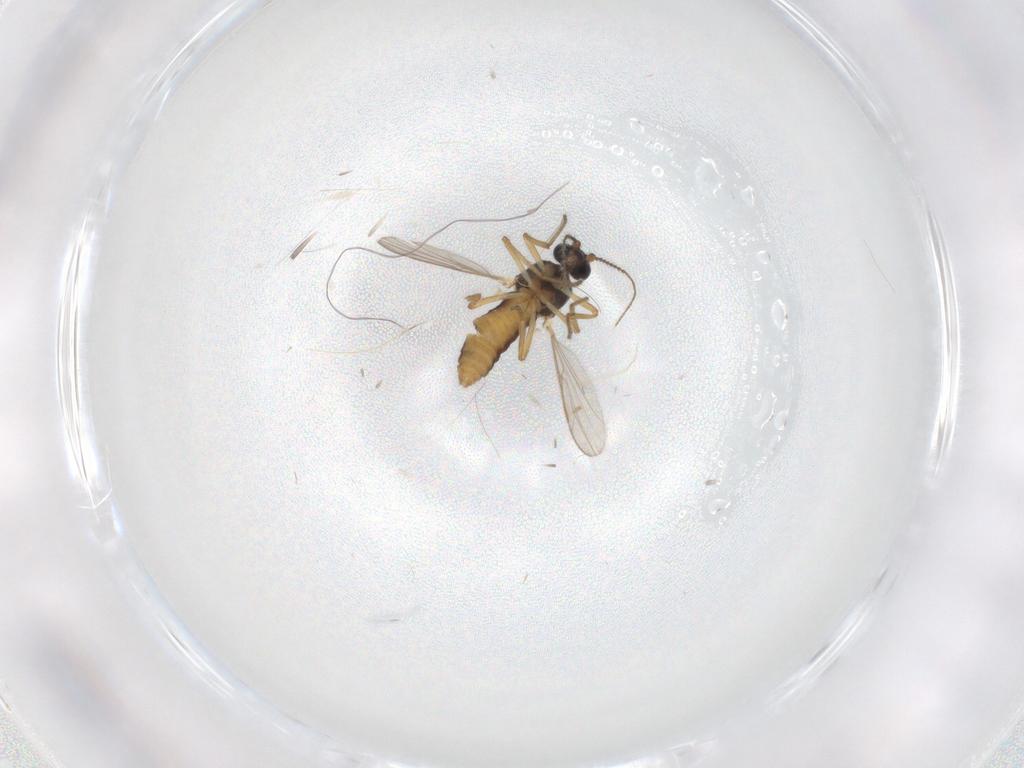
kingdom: Animalia
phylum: Arthropoda
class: Insecta
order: Diptera
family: Ceratopogonidae
